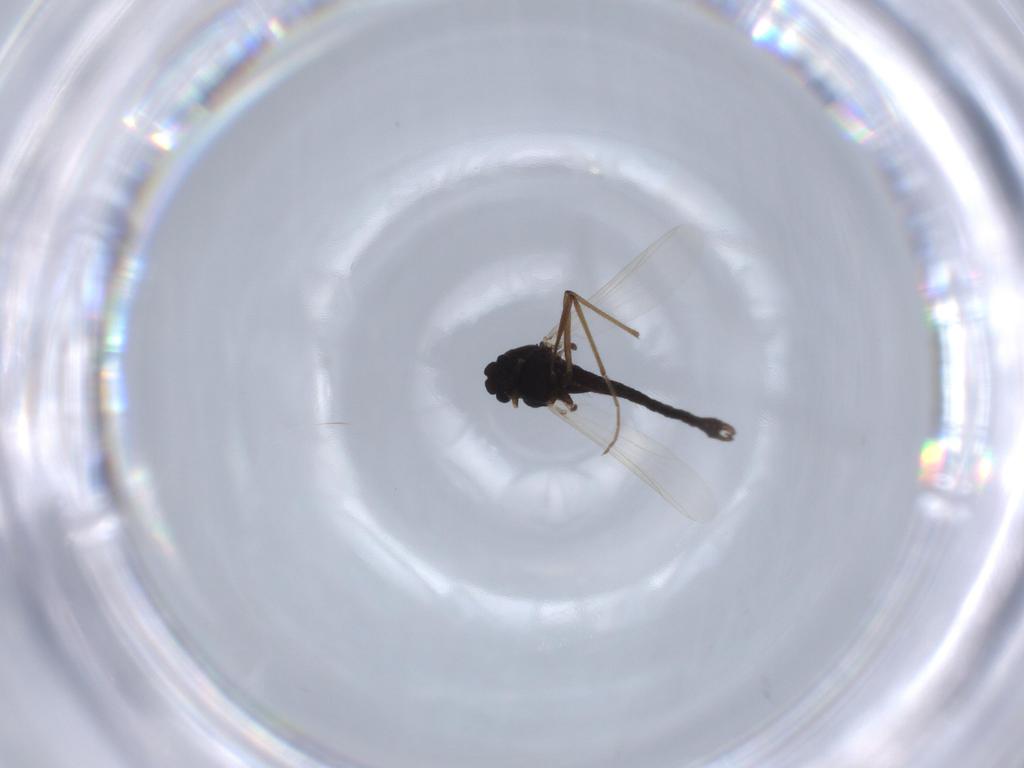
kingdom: Animalia
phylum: Arthropoda
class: Insecta
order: Diptera
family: Chironomidae
